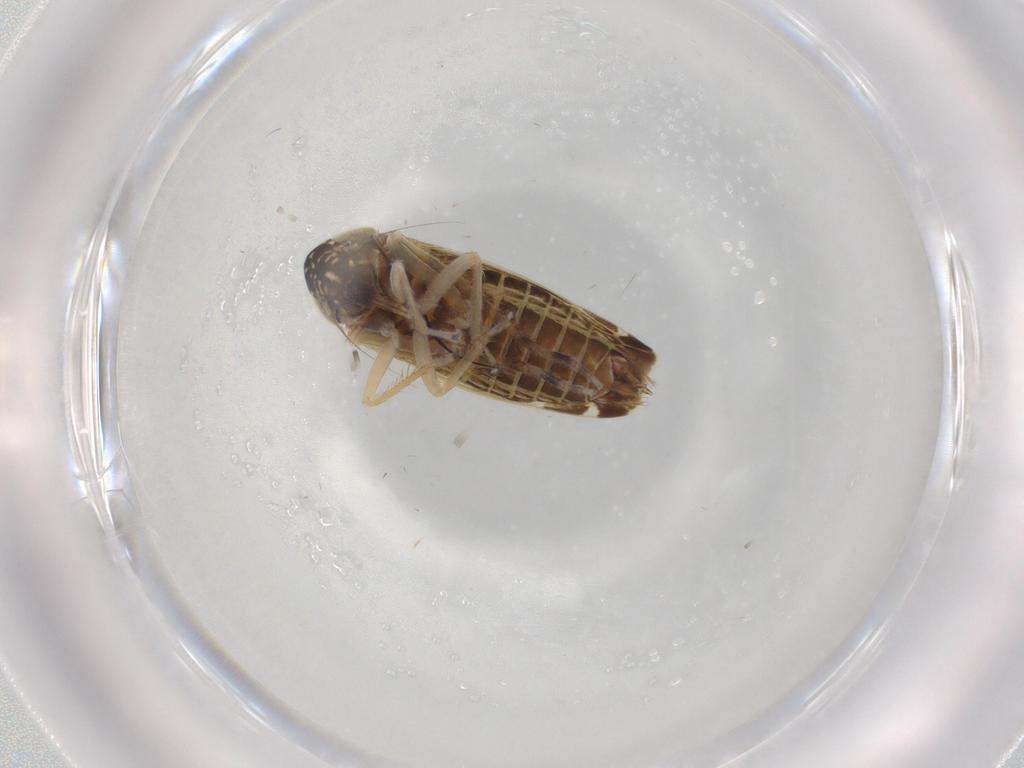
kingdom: Animalia
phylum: Arthropoda
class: Insecta
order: Hemiptera
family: Cicadellidae
